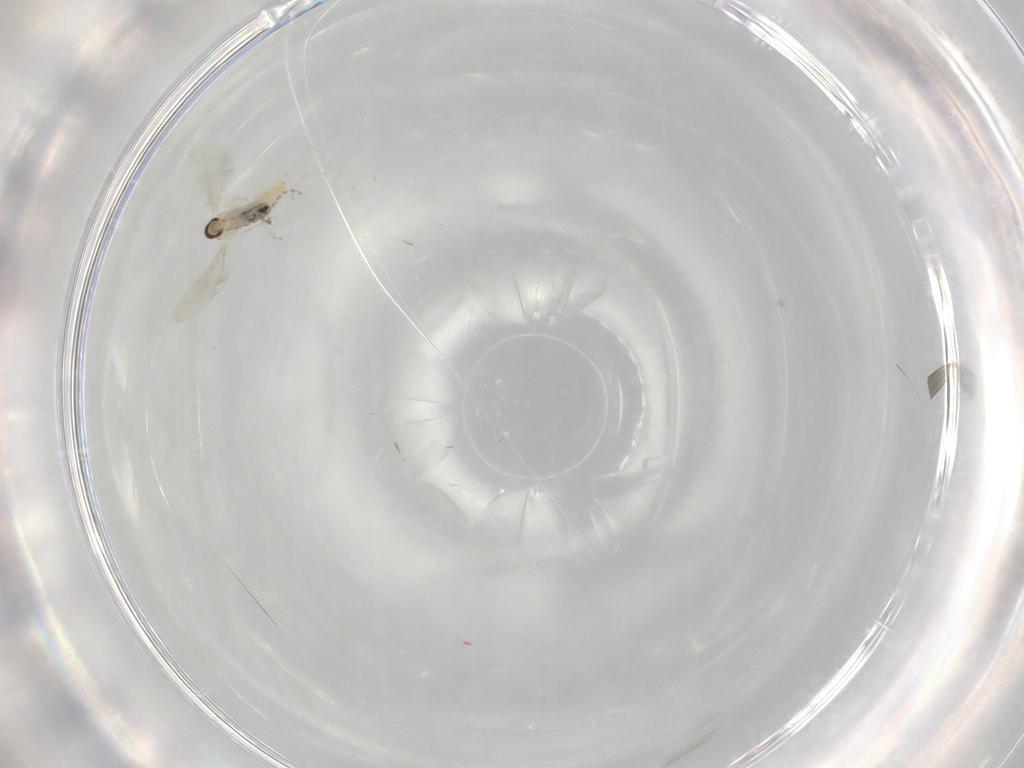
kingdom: Animalia
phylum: Arthropoda
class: Insecta
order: Diptera
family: Cecidomyiidae
